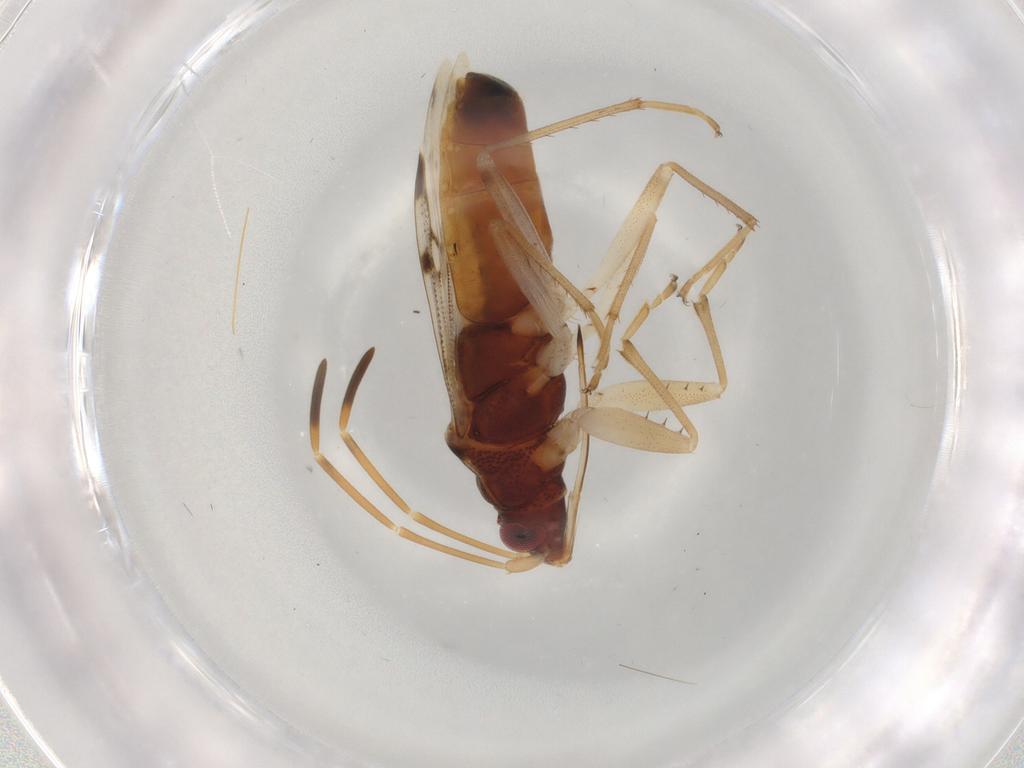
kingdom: Animalia
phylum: Arthropoda
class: Insecta
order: Hemiptera
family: Rhyparochromidae
